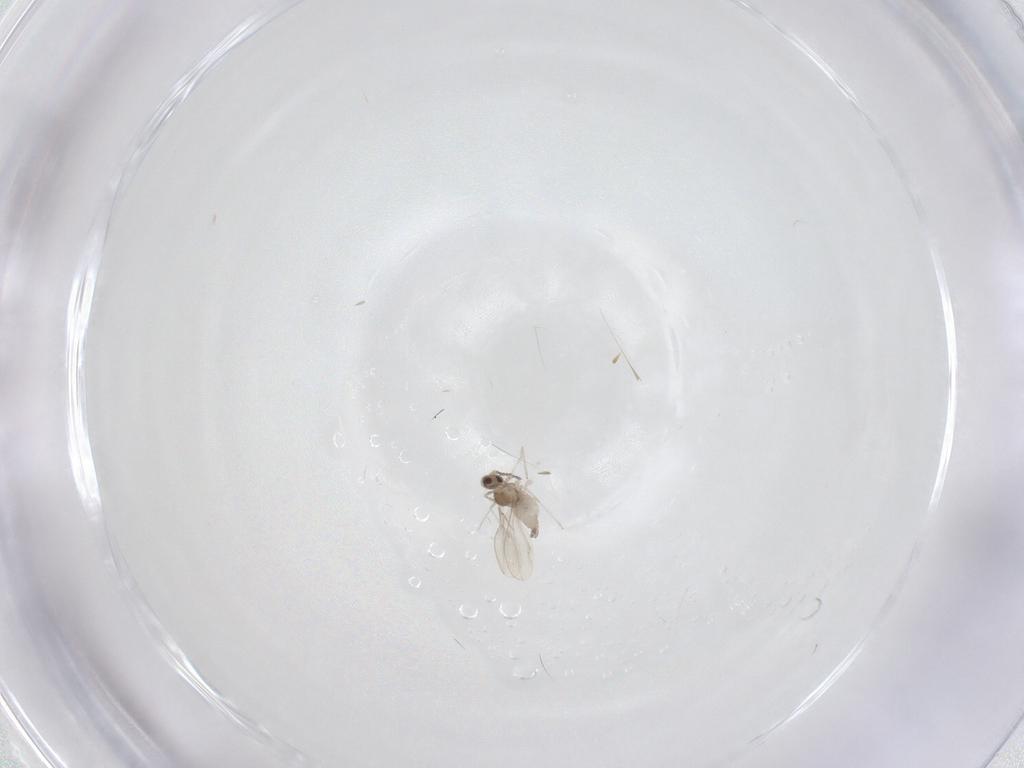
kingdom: Animalia
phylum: Arthropoda
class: Insecta
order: Diptera
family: Cecidomyiidae
